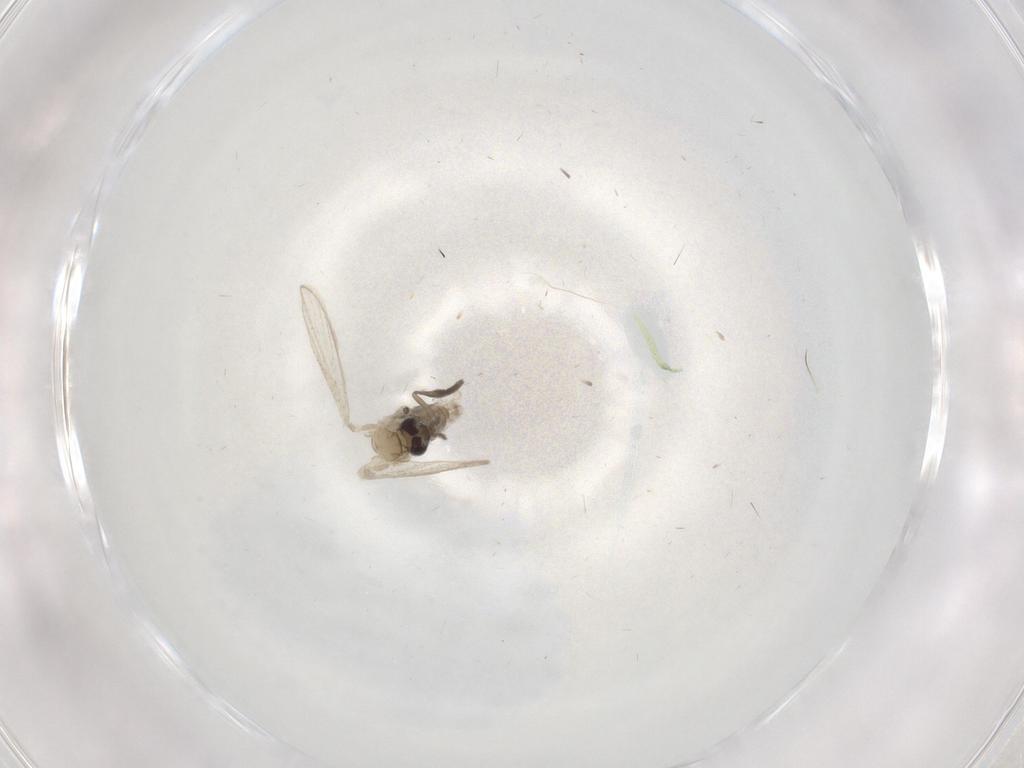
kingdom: Animalia
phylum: Arthropoda
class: Insecta
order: Diptera
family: Psychodidae
